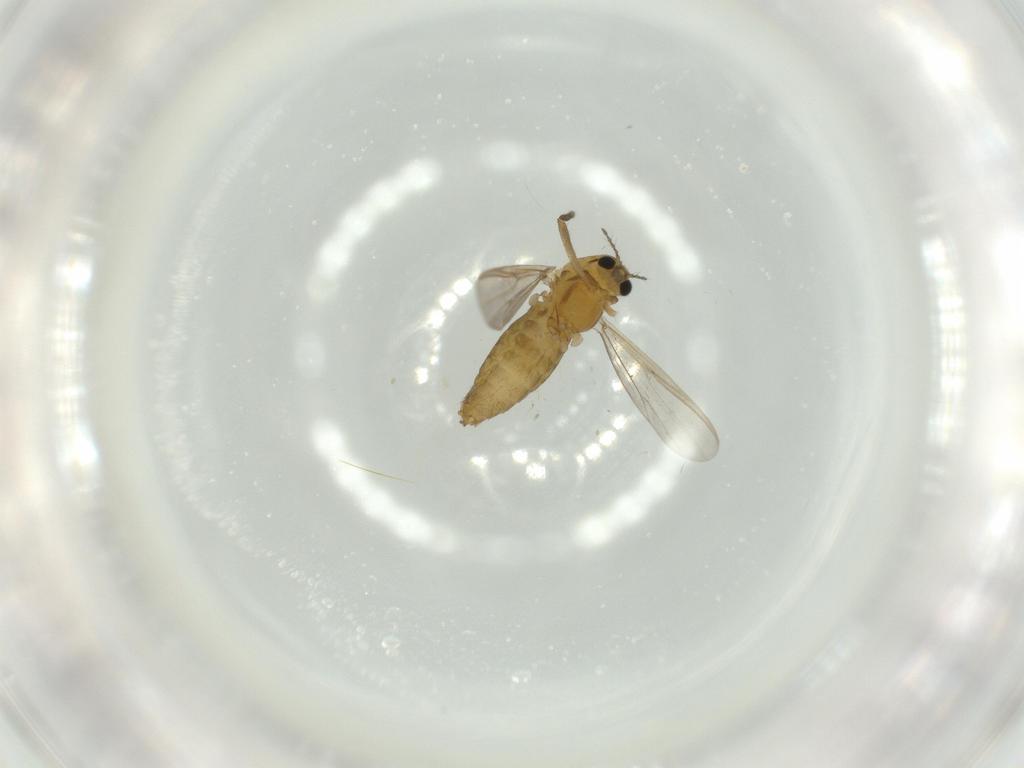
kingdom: Animalia
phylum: Arthropoda
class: Insecta
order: Diptera
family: Chironomidae
